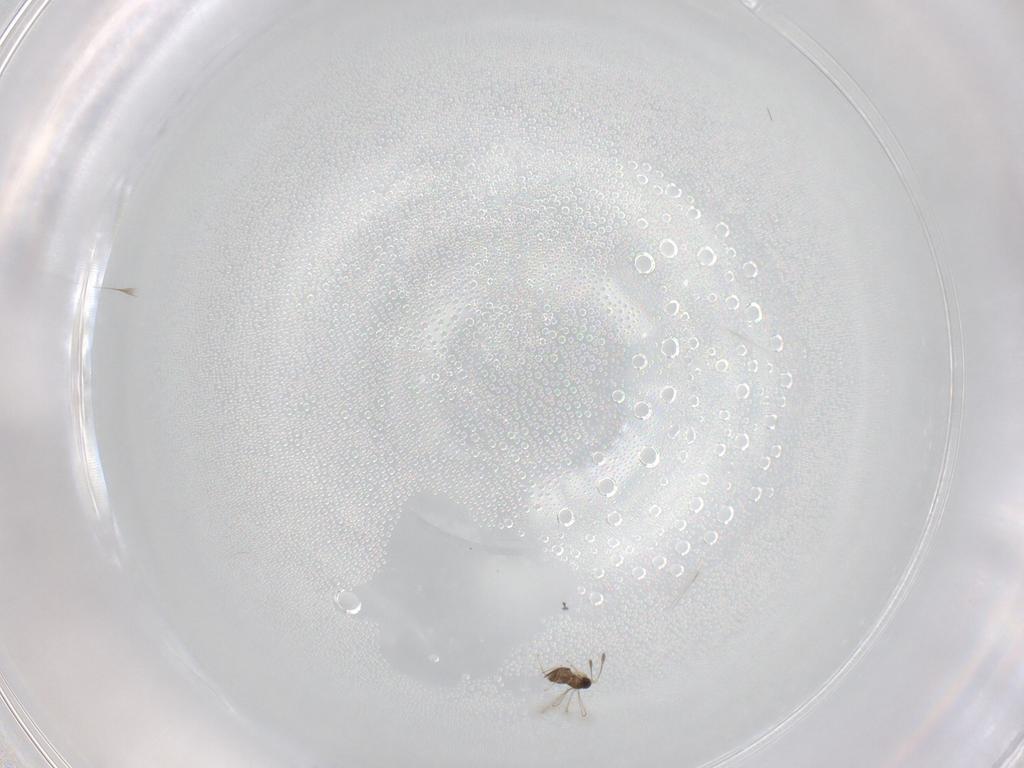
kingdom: Animalia
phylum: Arthropoda
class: Insecta
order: Hymenoptera
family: Mymaridae
